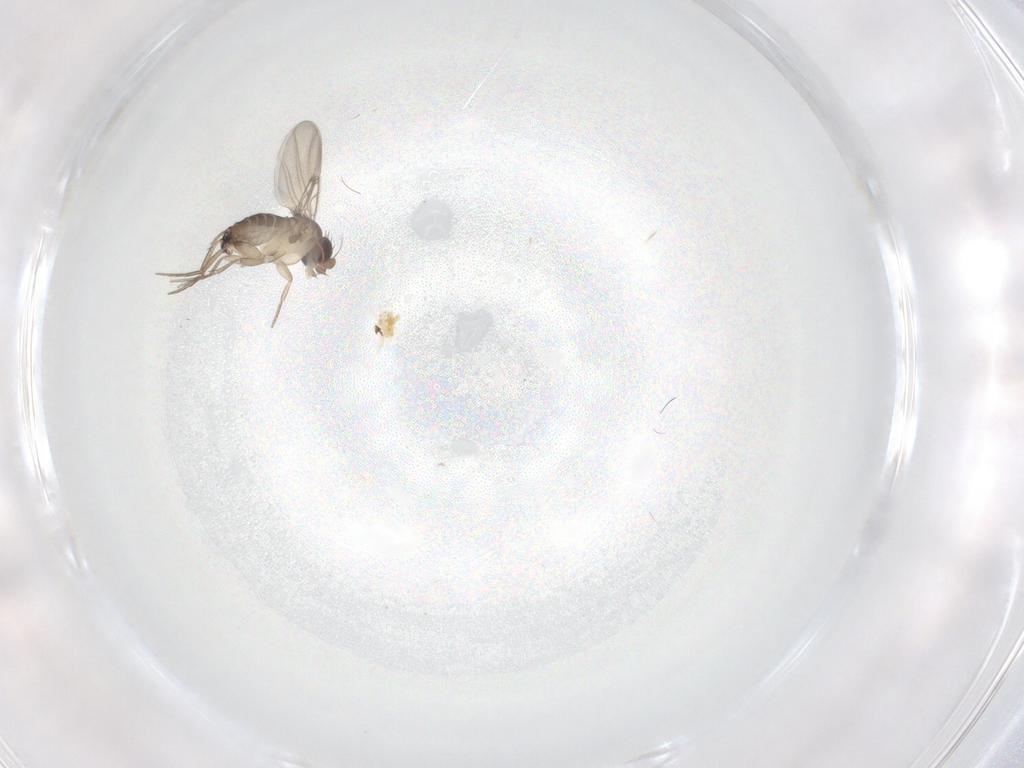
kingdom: Animalia
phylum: Arthropoda
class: Insecta
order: Diptera
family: Phoridae
